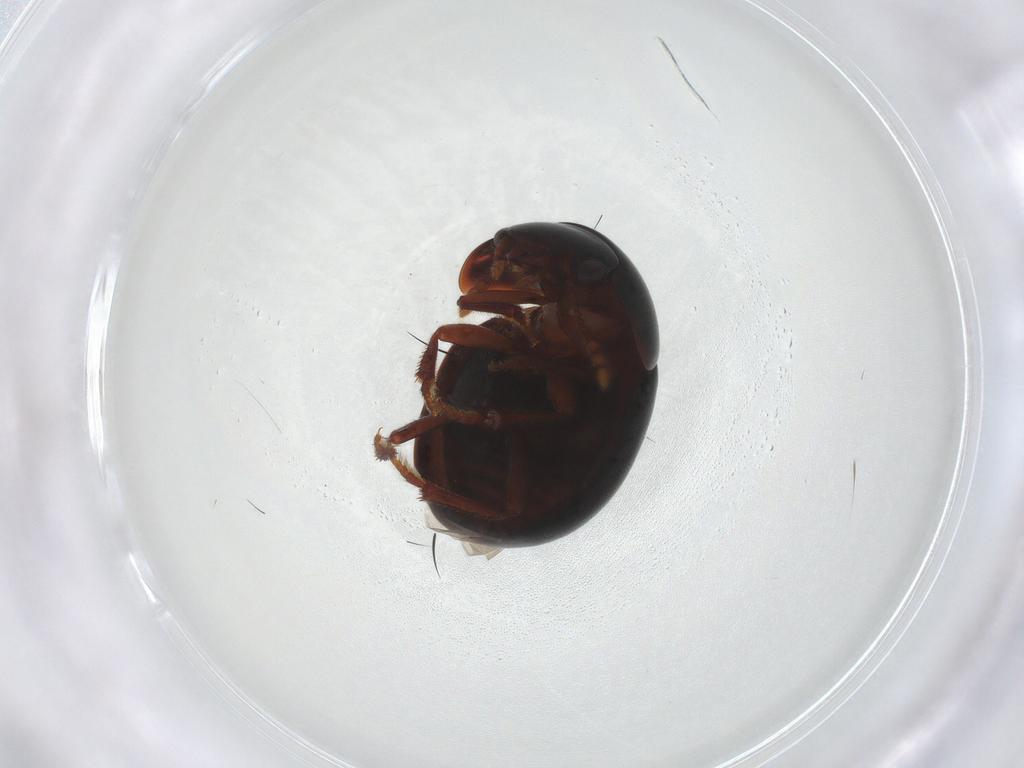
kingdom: Animalia
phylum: Arthropoda
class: Insecta
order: Coleoptera
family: Leiodidae
